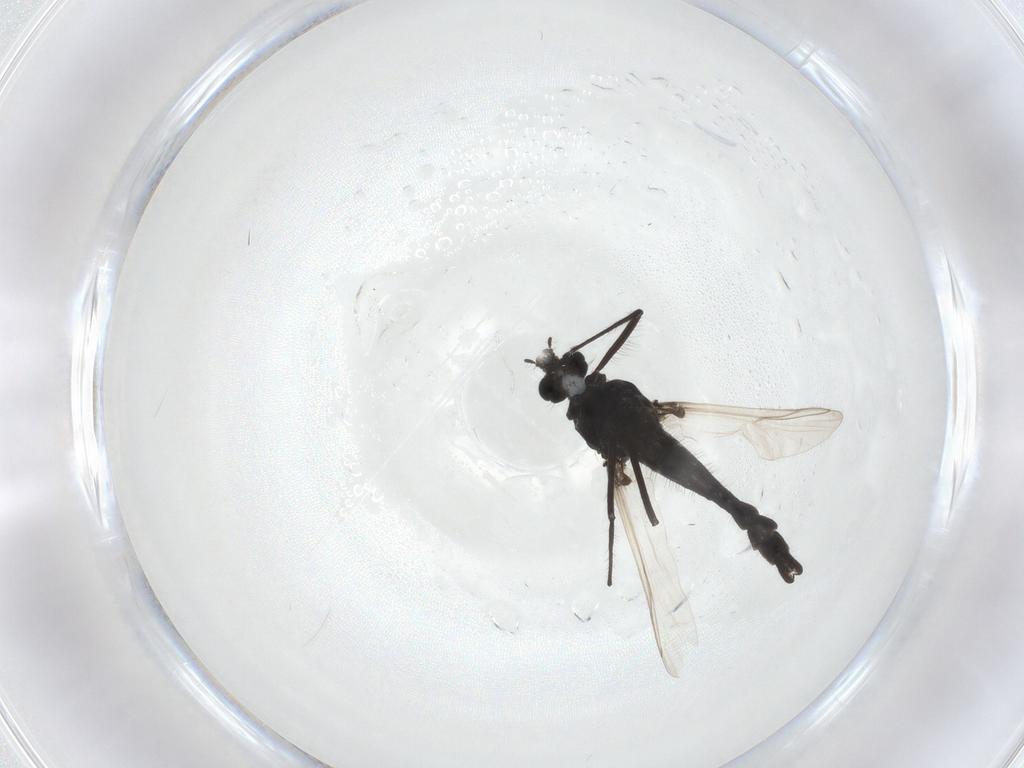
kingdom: Animalia
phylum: Arthropoda
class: Insecta
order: Diptera
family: Chironomidae
